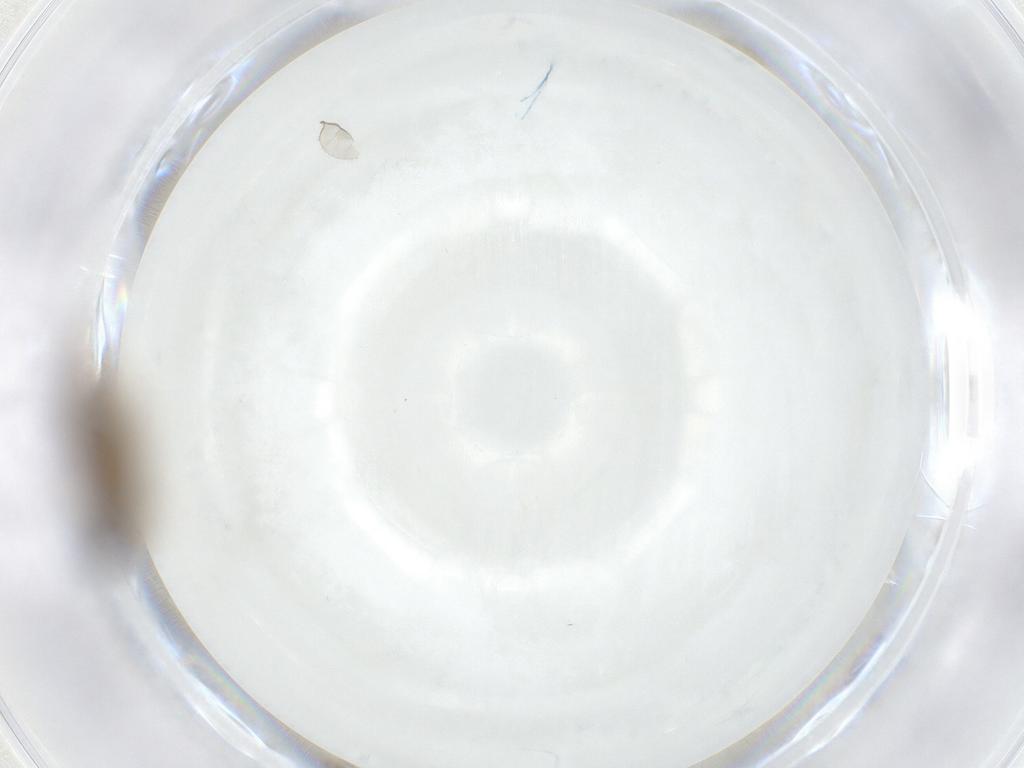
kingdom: Animalia
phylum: Arthropoda
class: Insecta
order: Diptera
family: Sciaridae
